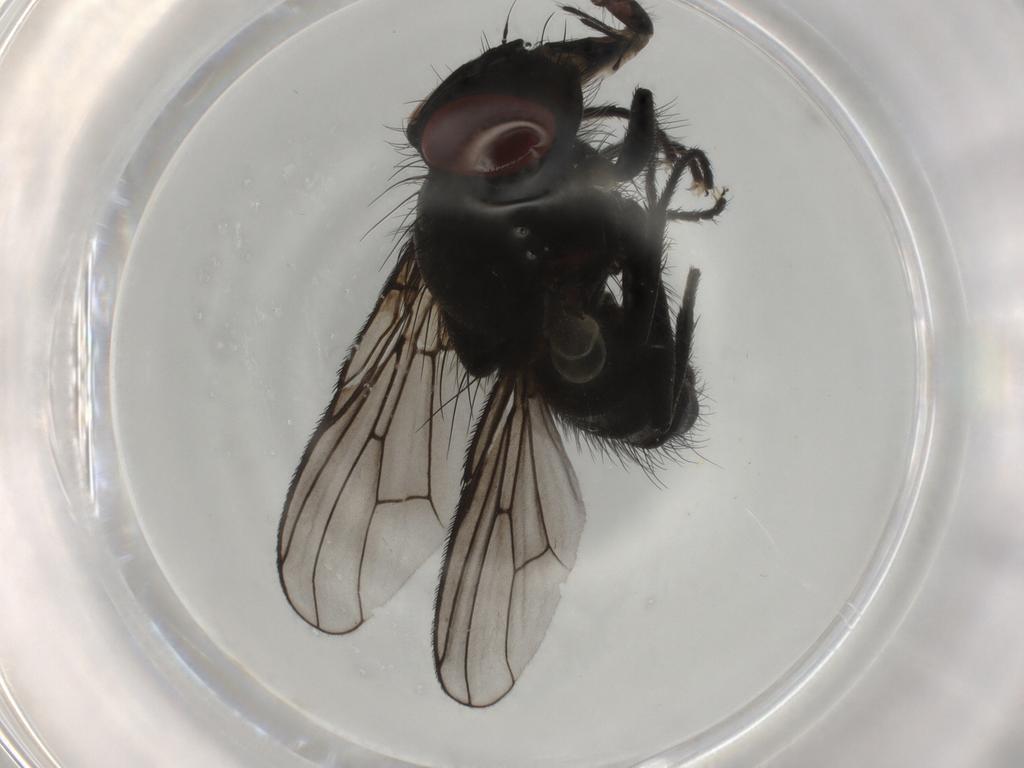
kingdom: Animalia
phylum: Arthropoda
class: Insecta
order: Diptera
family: Muscidae
